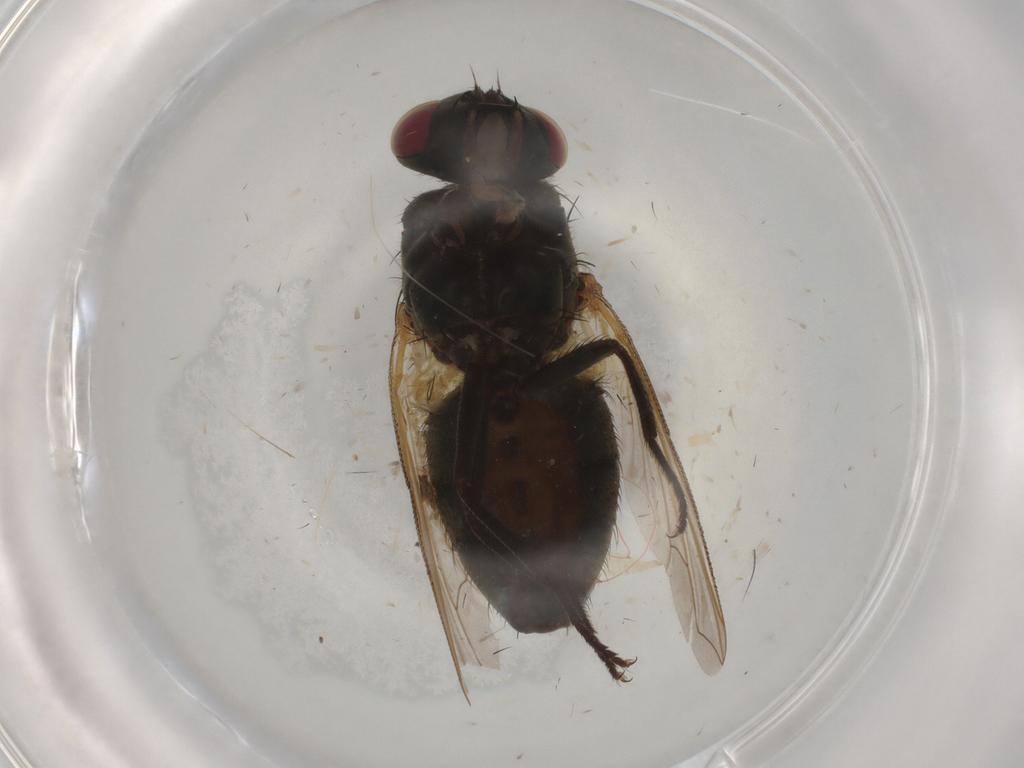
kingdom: Animalia
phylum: Arthropoda
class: Insecta
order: Diptera
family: Dolichopodidae
